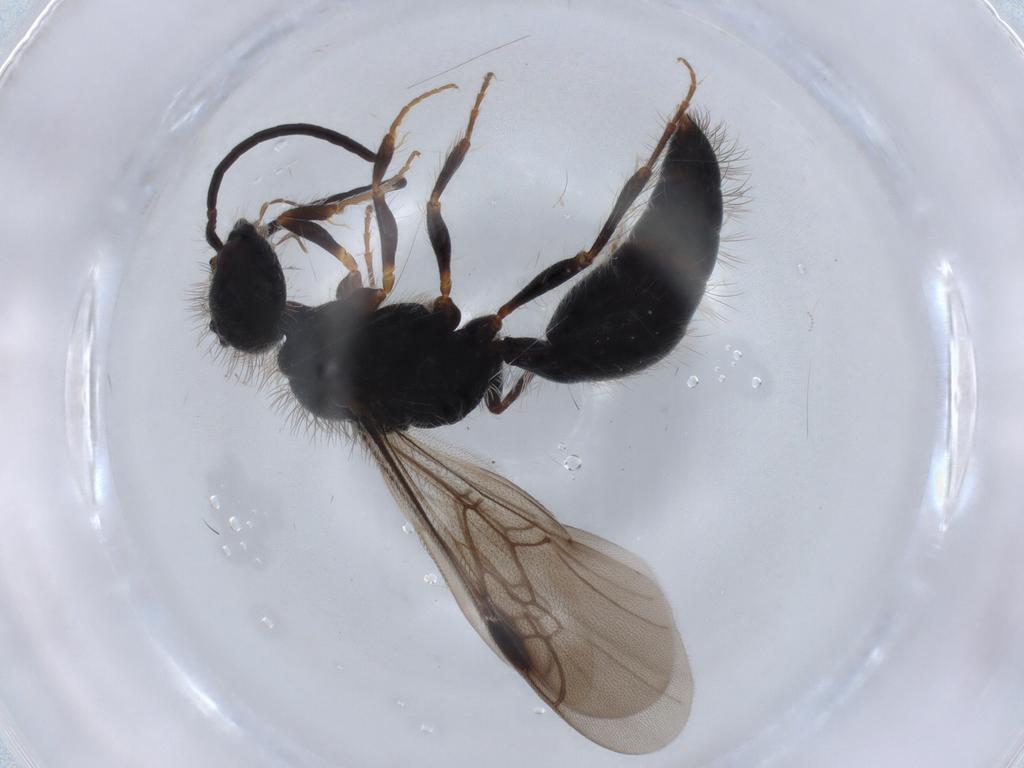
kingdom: Animalia
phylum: Arthropoda
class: Insecta
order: Hymenoptera
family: Mutillidae
